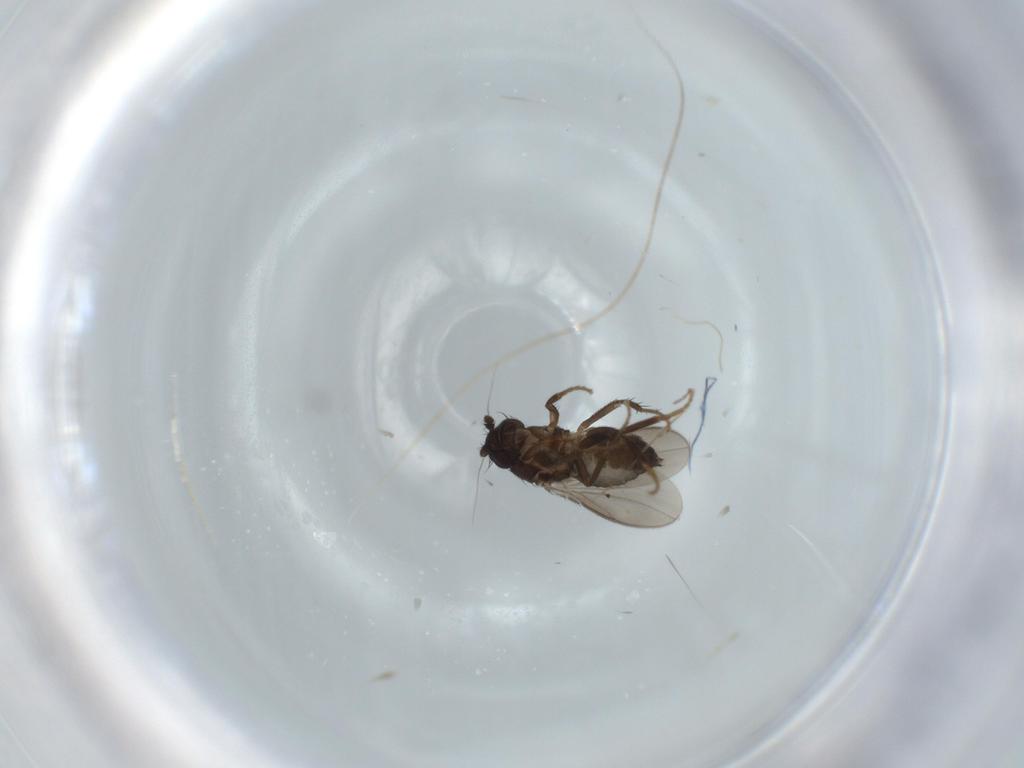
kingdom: Animalia
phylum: Arthropoda
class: Insecta
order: Diptera
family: Sphaeroceridae
